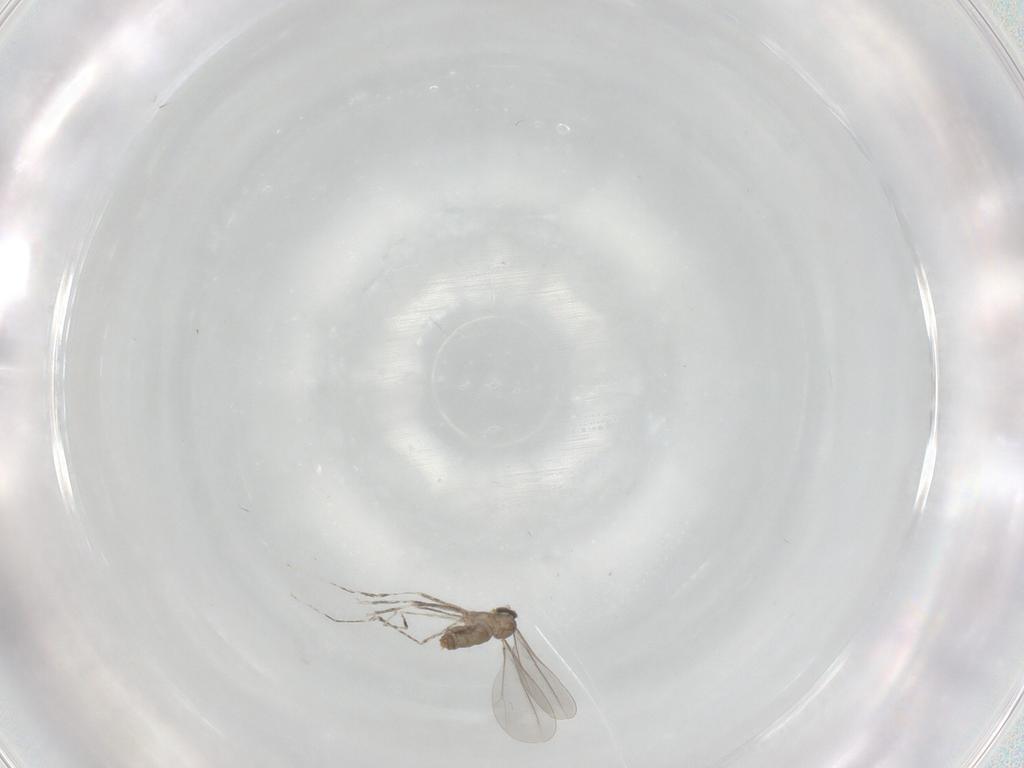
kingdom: Animalia
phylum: Arthropoda
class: Insecta
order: Diptera
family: Cecidomyiidae
